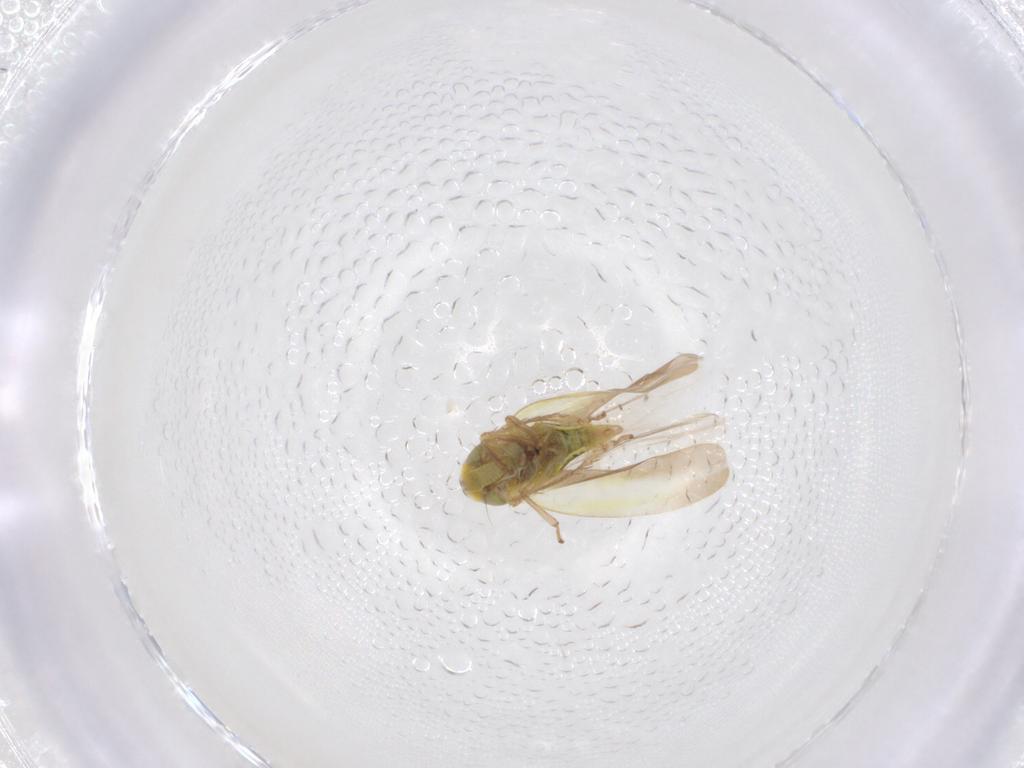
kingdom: Animalia
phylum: Arthropoda
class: Insecta
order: Hemiptera
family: Cicadellidae
